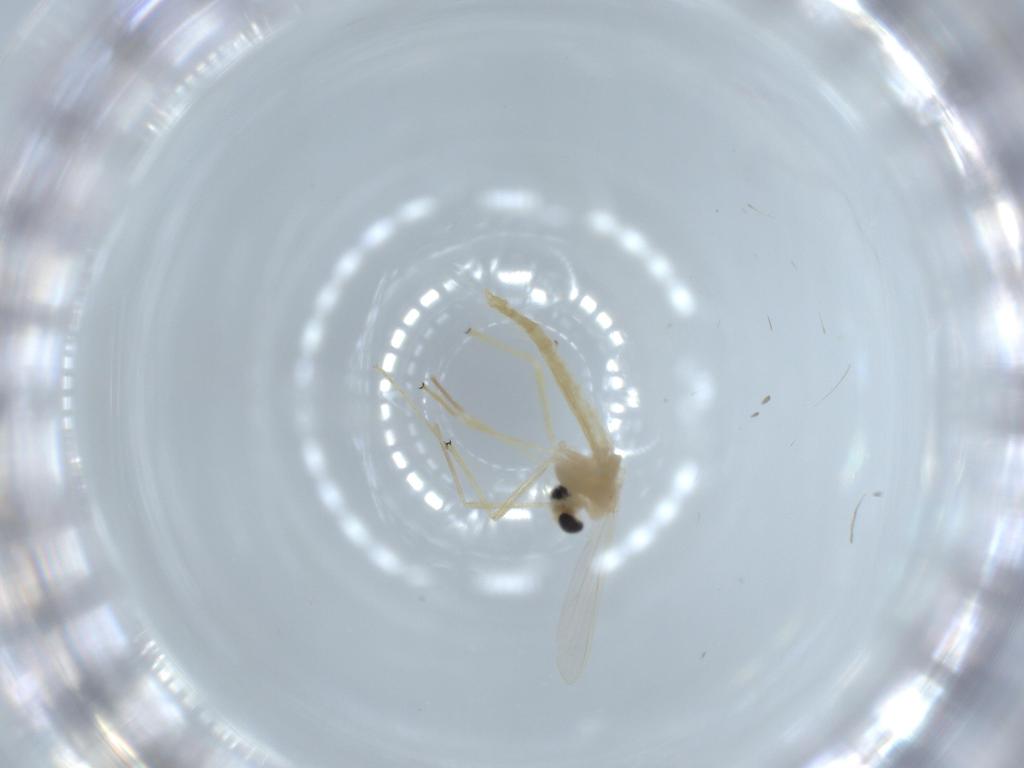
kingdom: Animalia
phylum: Arthropoda
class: Insecta
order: Diptera
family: Chironomidae
